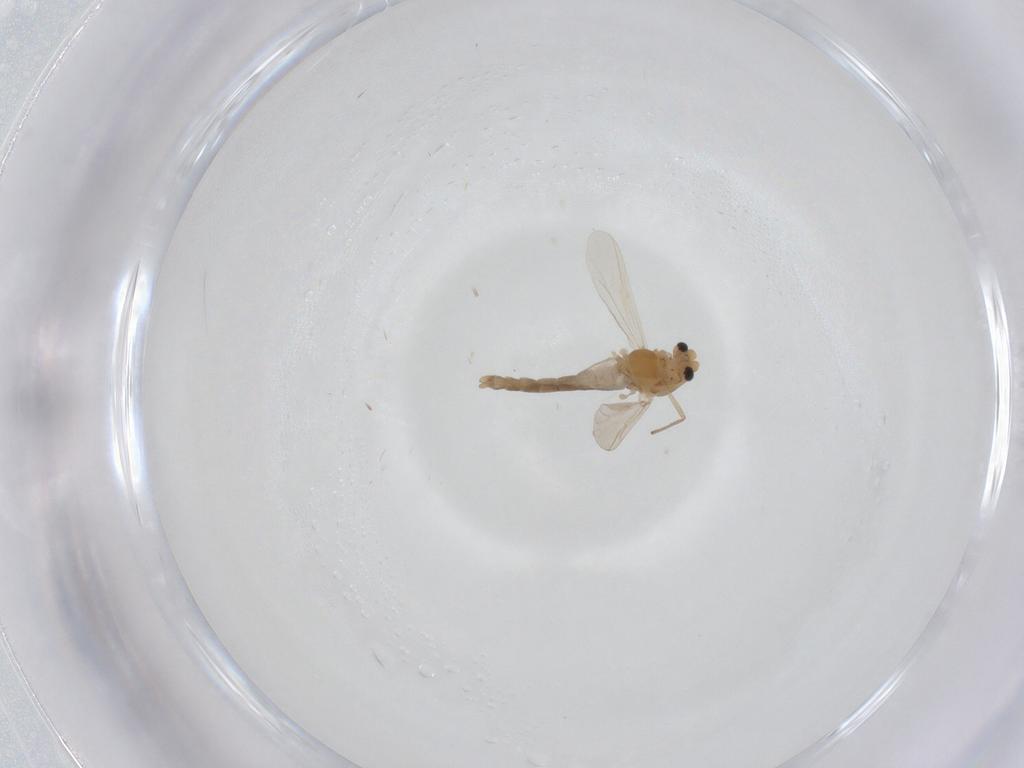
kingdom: Animalia
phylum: Arthropoda
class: Insecta
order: Diptera
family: Chironomidae
